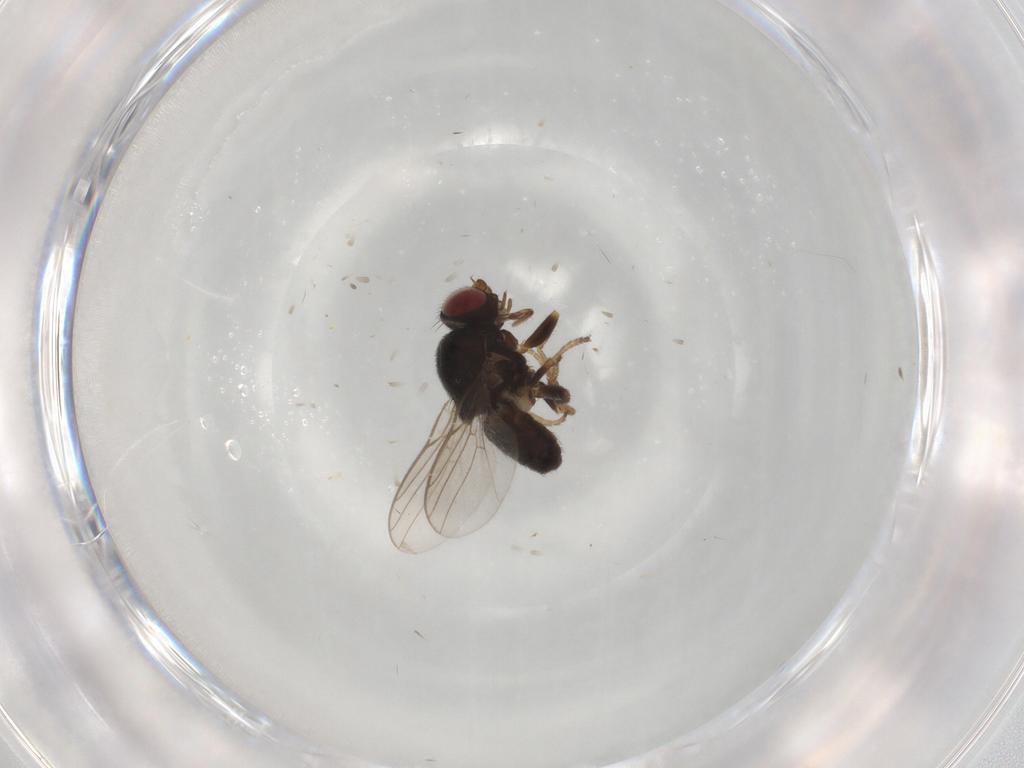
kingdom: Animalia
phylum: Arthropoda
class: Insecta
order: Diptera
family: Chloropidae
